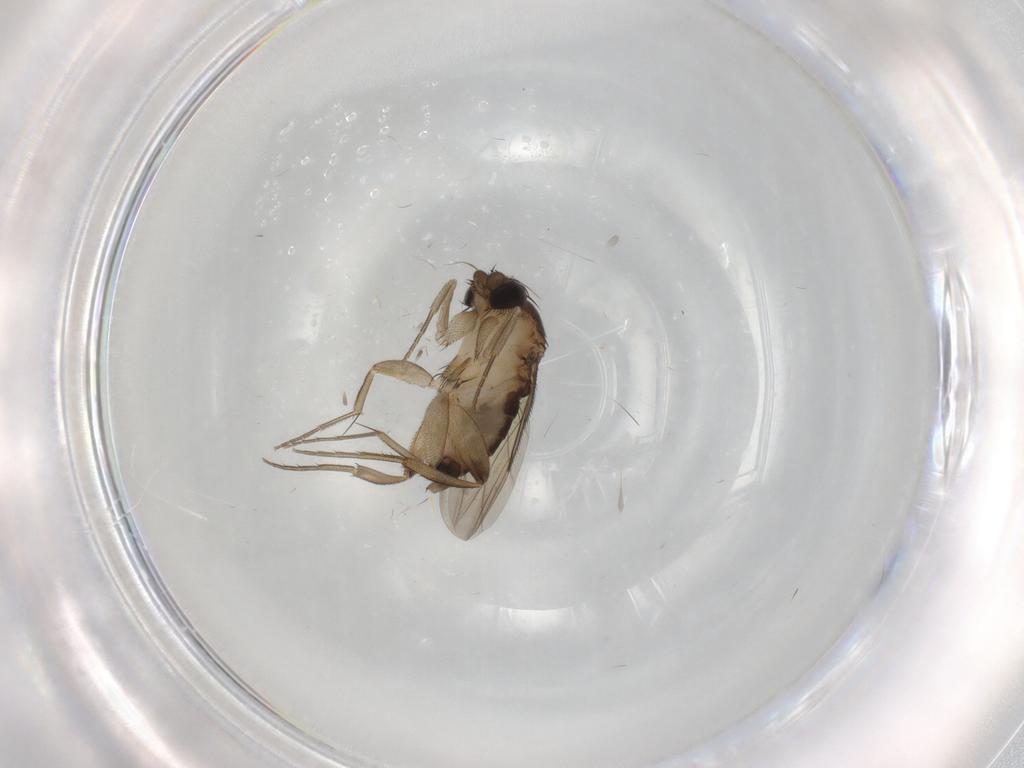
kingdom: Animalia
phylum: Arthropoda
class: Insecta
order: Diptera
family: Phoridae
